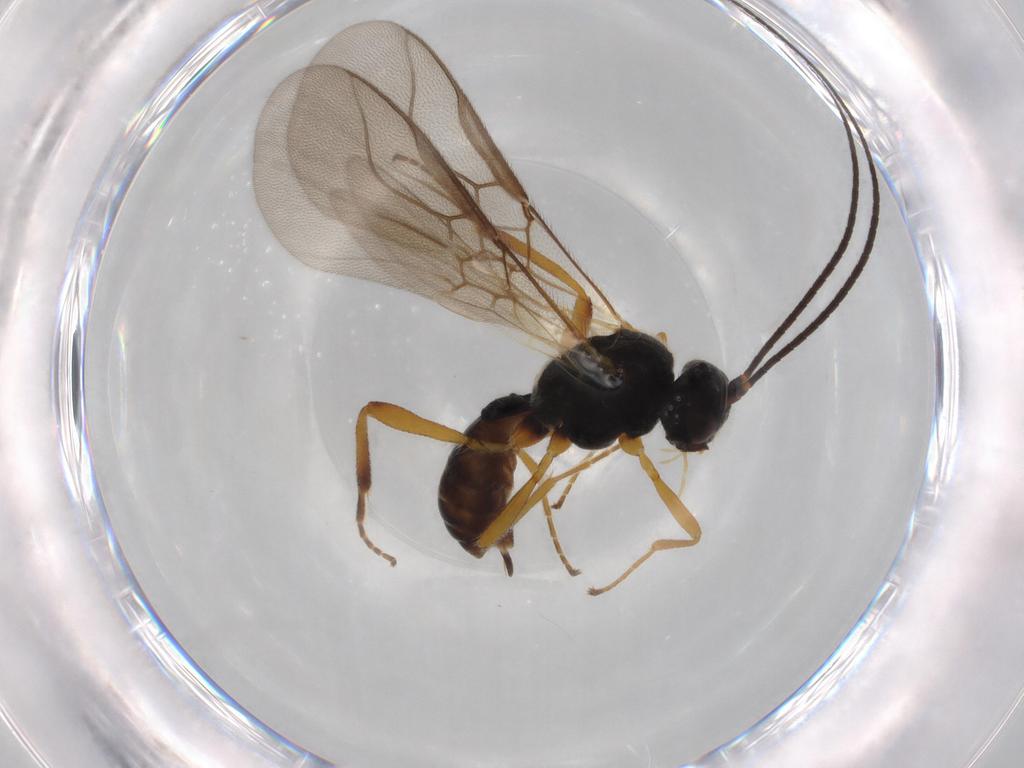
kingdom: Animalia
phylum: Arthropoda
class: Insecta
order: Hymenoptera
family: Braconidae
